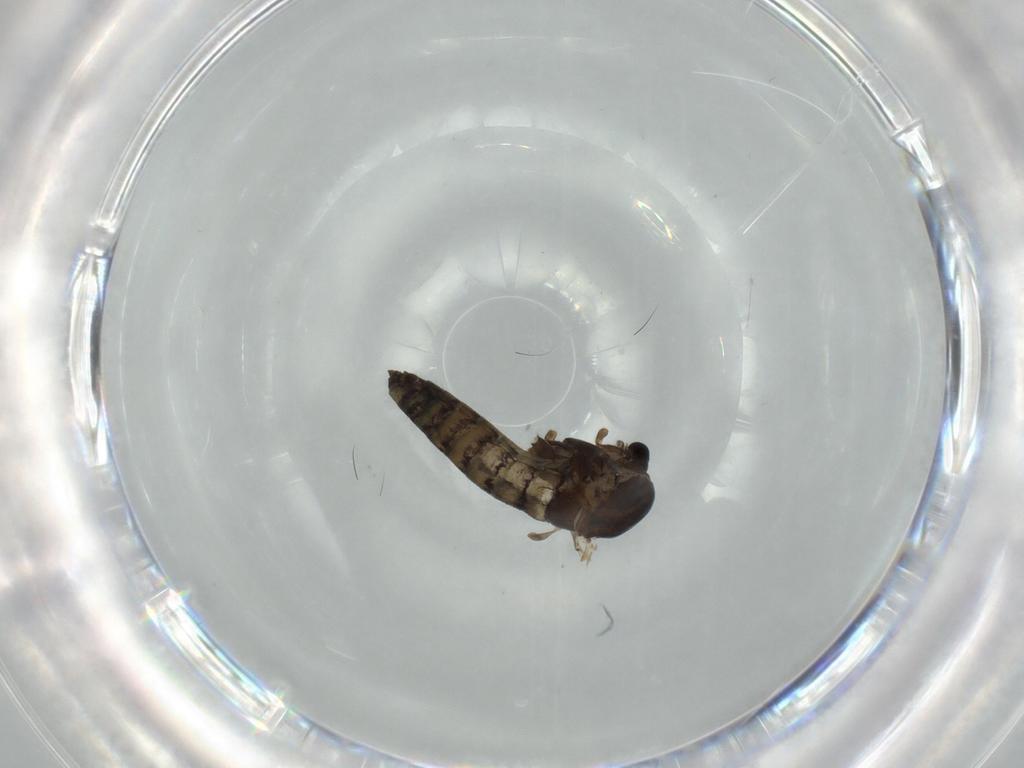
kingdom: Animalia
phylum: Arthropoda
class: Insecta
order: Diptera
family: Chironomidae
